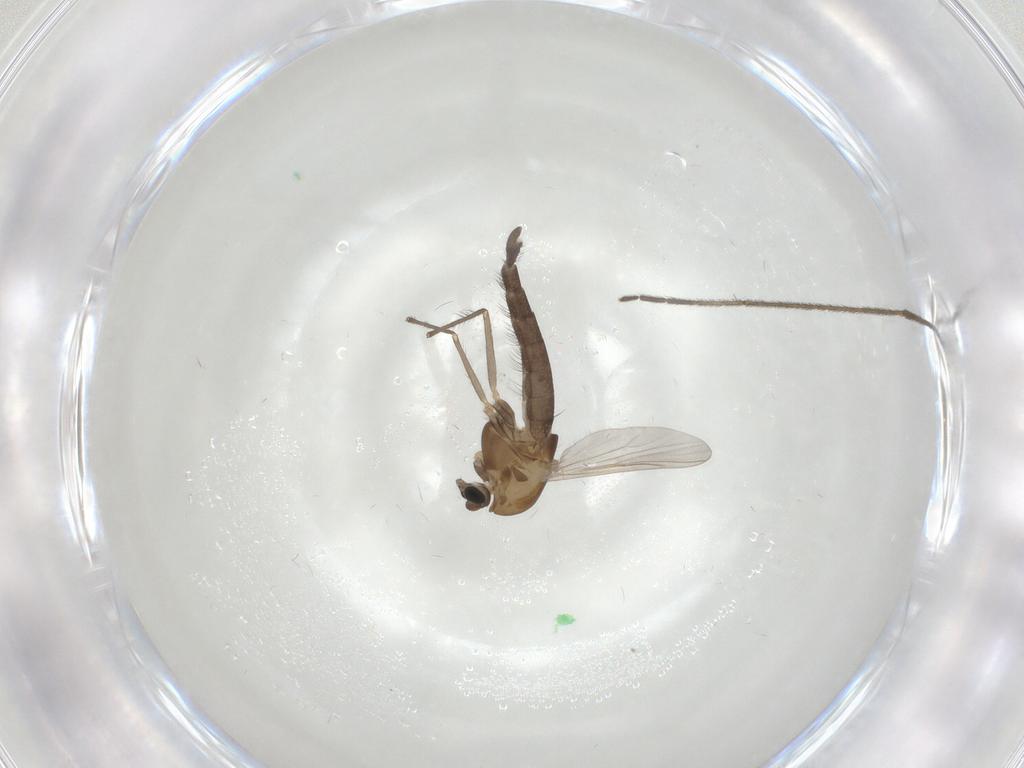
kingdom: Animalia
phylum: Arthropoda
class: Insecta
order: Diptera
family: Chironomidae
